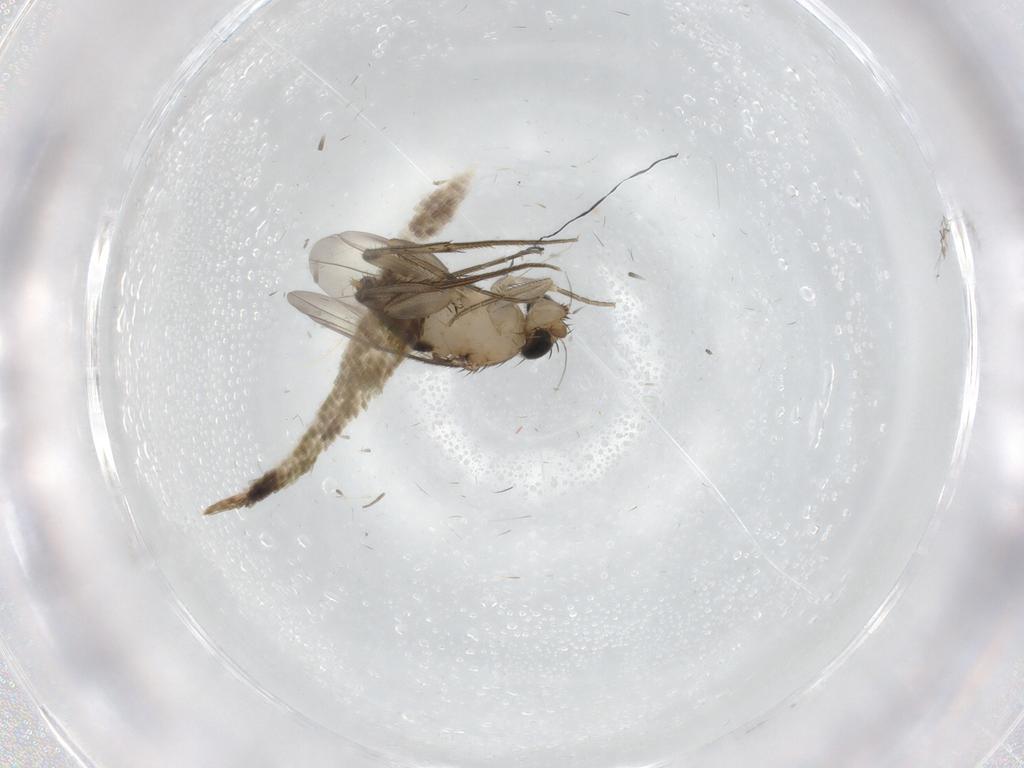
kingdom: Animalia
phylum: Arthropoda
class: Insecta
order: Diptera
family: Phoridae
